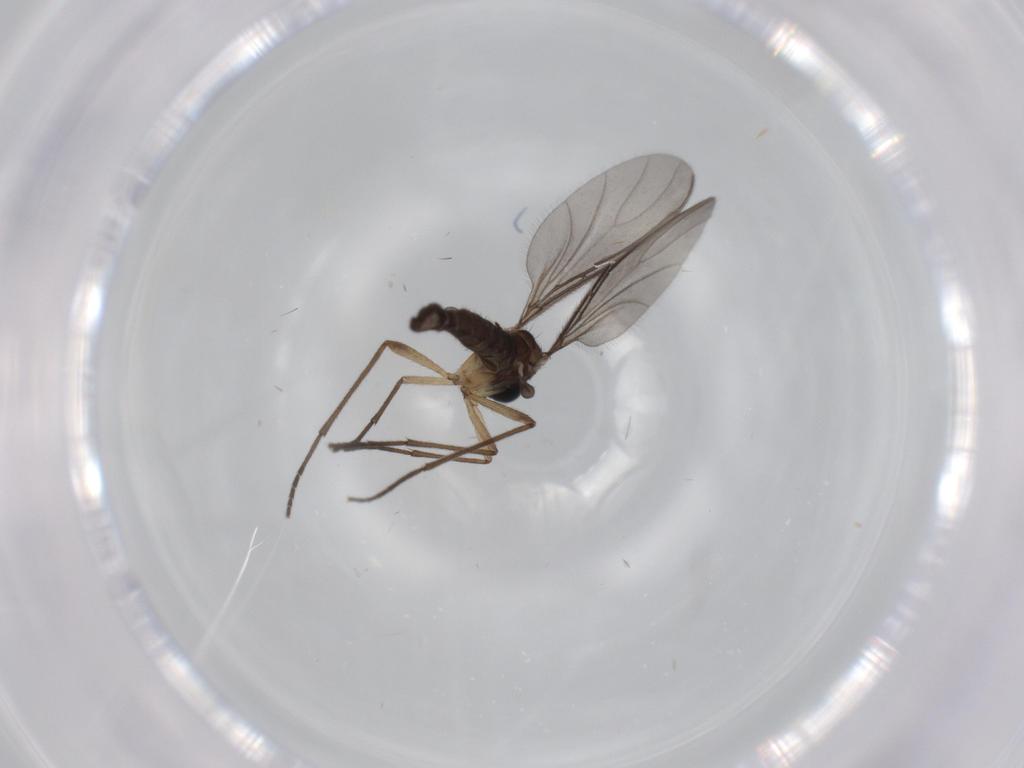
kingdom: Animalia
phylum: Arthropoda
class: Insecta
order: Diptera
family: Sciaridae
